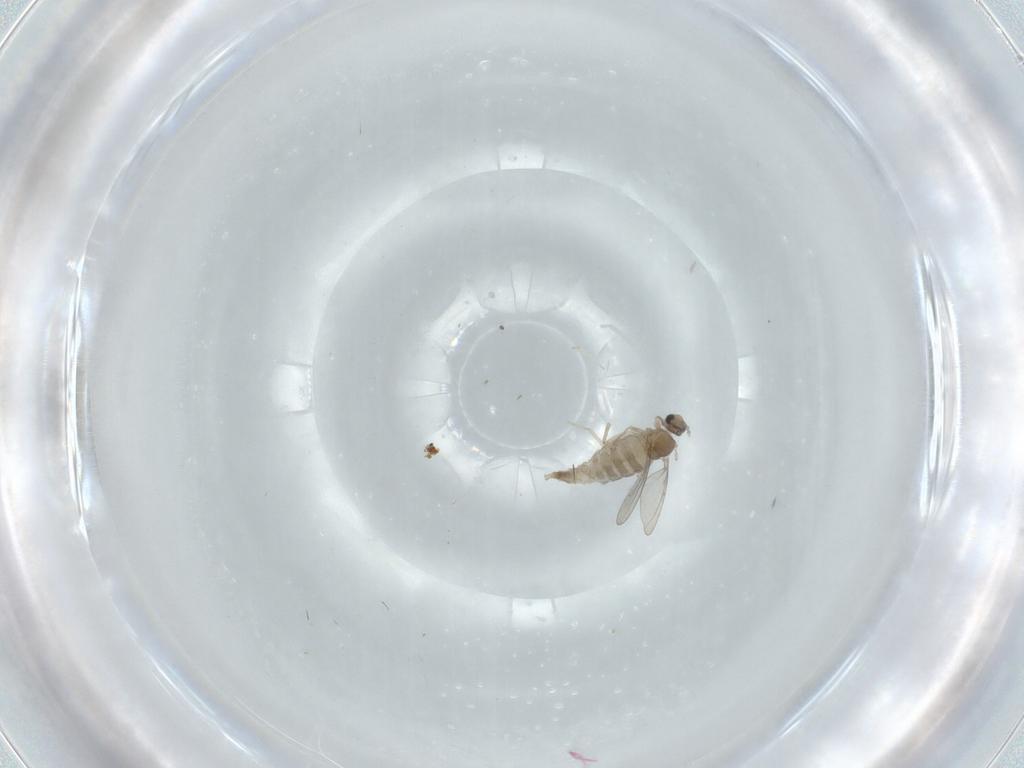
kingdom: Animalia
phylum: Arthropoda
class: Insecta
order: Diptera
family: Cecidomyiidae
